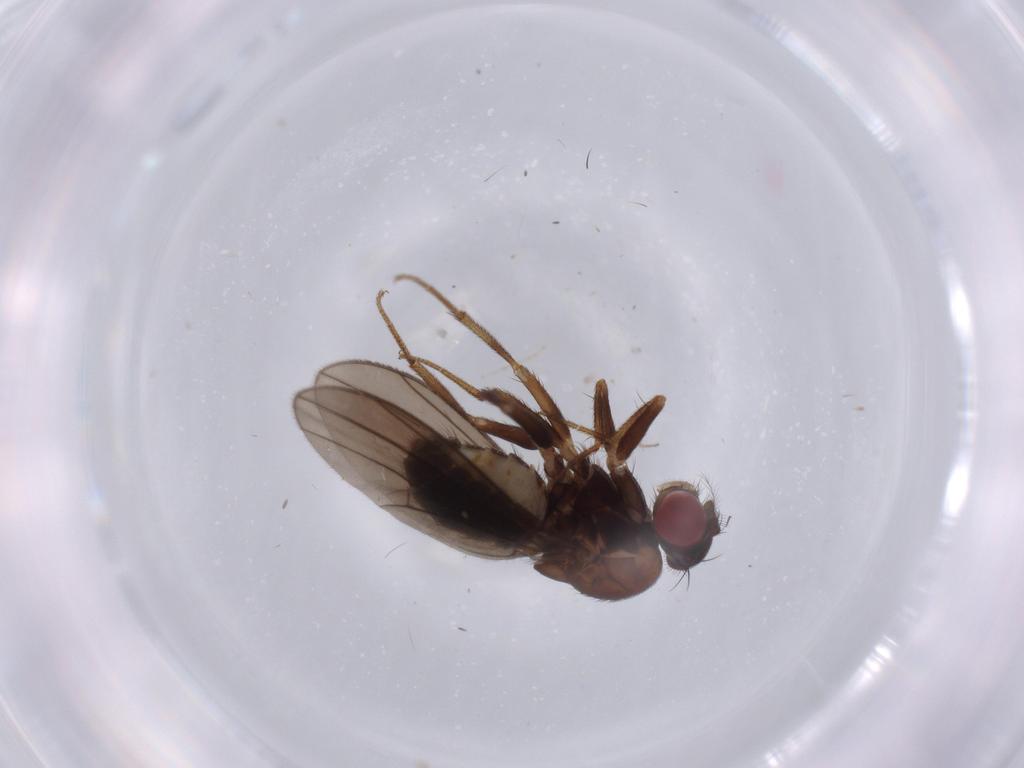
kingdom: Animalia
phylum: Arthropoda
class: Insecta
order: Diptera
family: Drosophilidae
